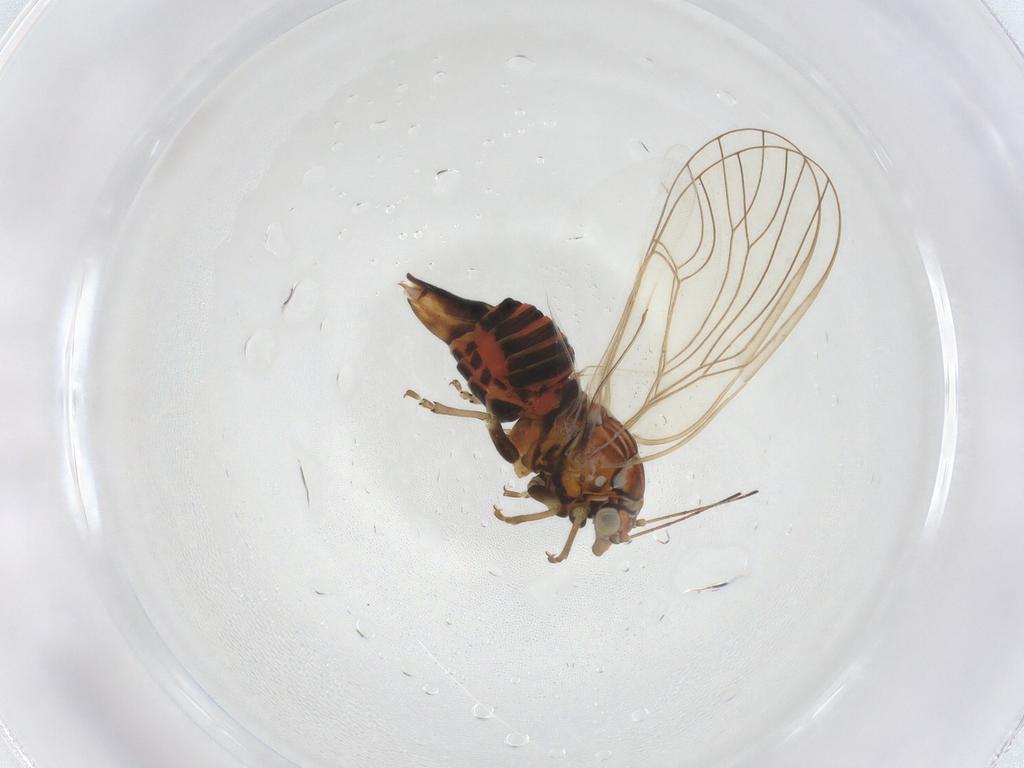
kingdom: Animalia
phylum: Arthropoda
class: Insecta
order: Hemiptera
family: Psyllidae
